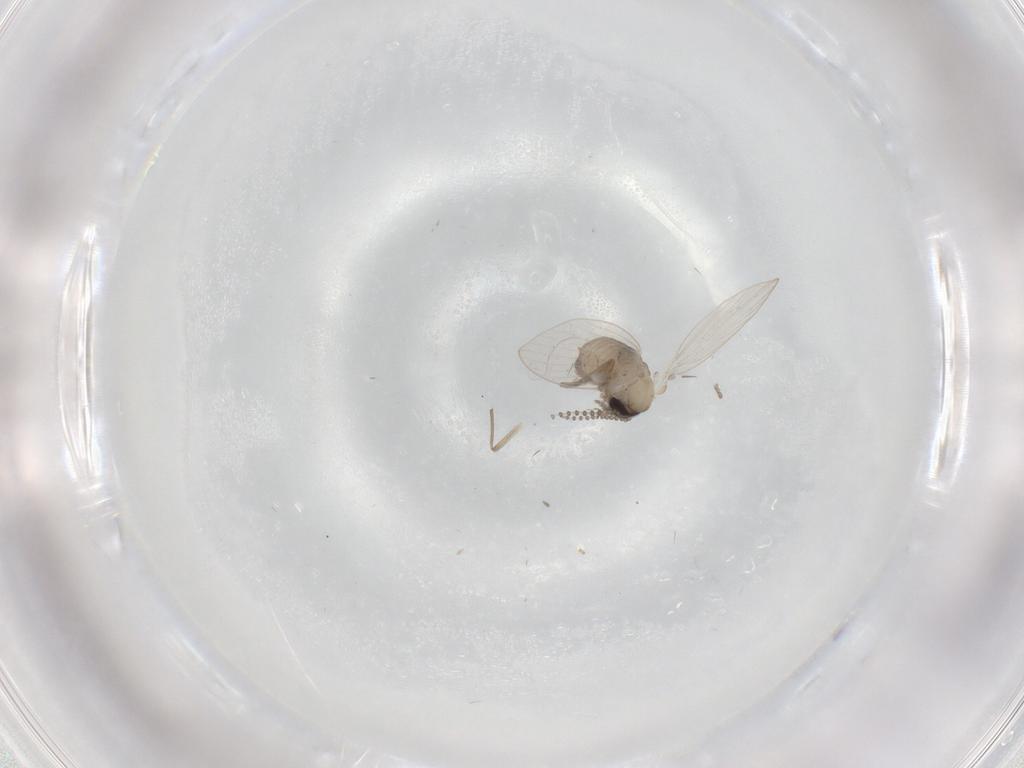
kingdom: Animalia
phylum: Arthropoda
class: Insecta
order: Diptera
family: Psychodidae
